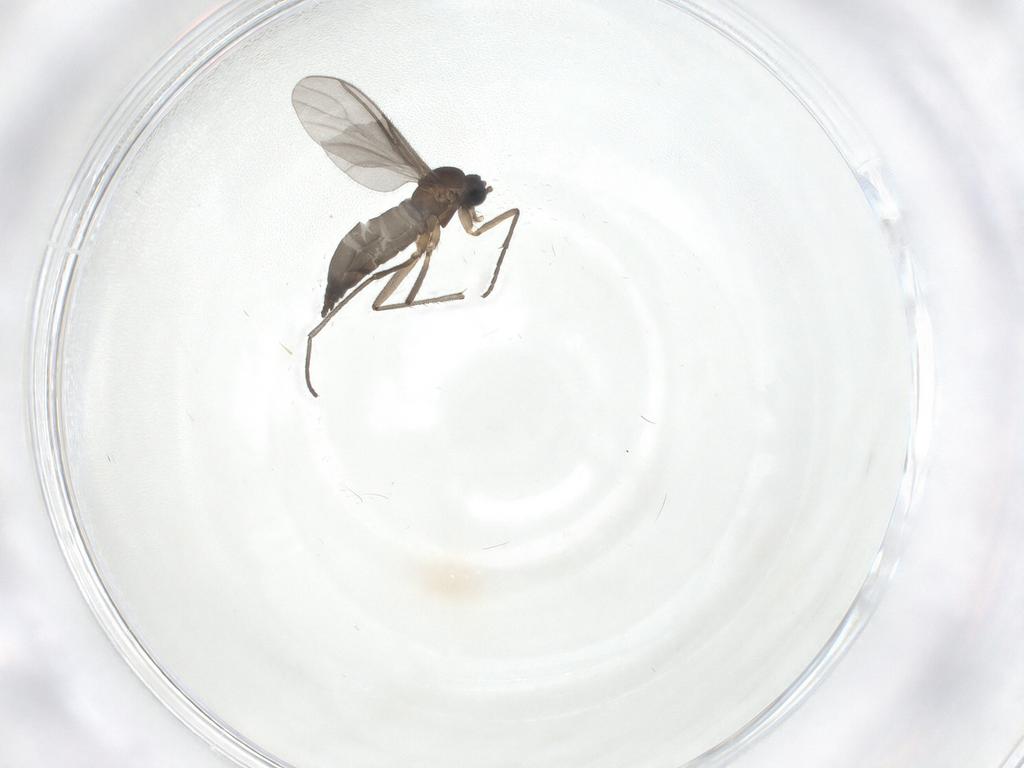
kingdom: Animalia
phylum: Arthropoda
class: Insecta
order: Diptera
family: Sciaridae
